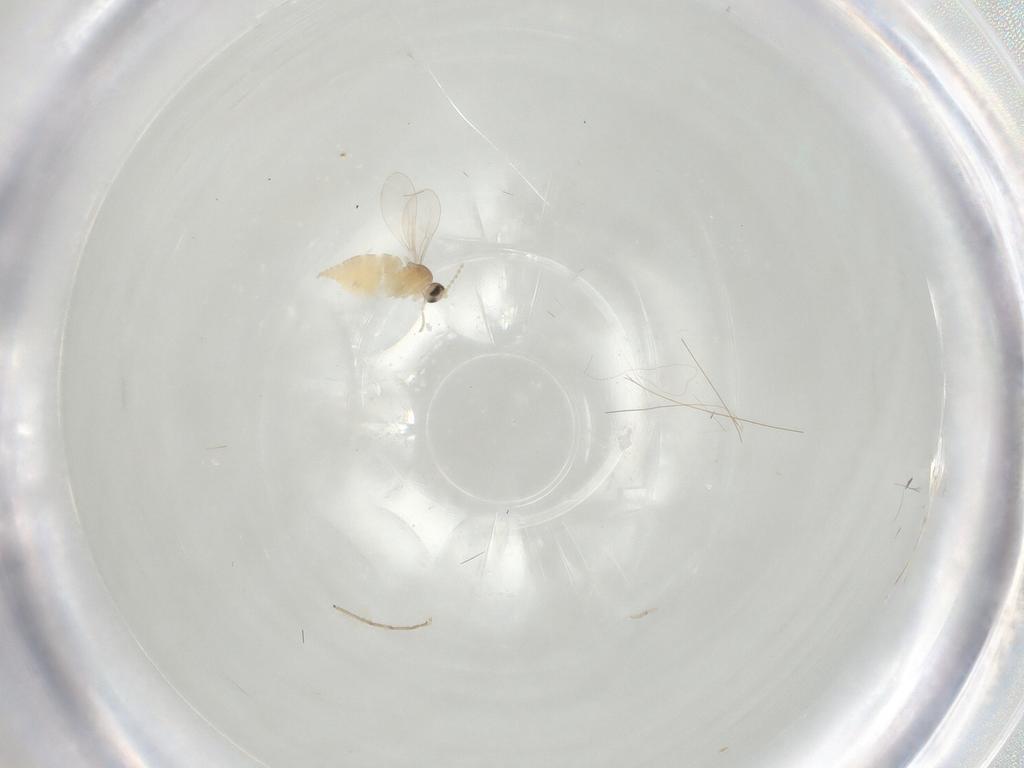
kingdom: Animalia
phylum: Arthropoda
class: Insecta
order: Diptera
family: Cecidomyiidae
